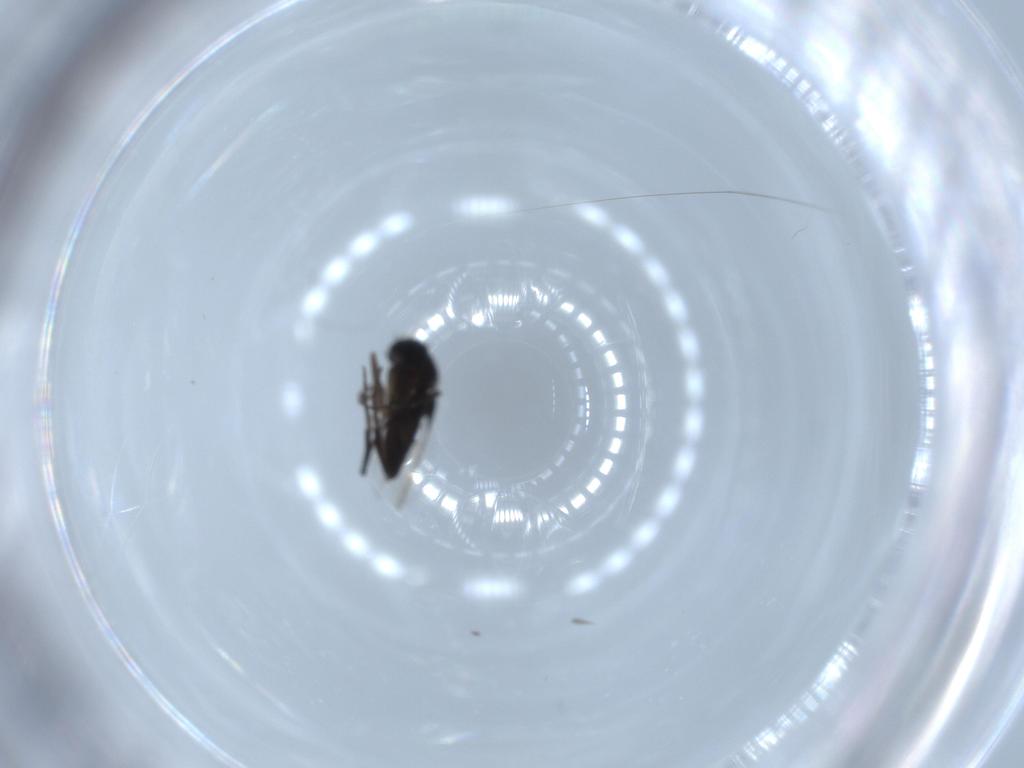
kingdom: Animalia
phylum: Arthropoda
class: Insecta
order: Diptera
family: Phoridae
